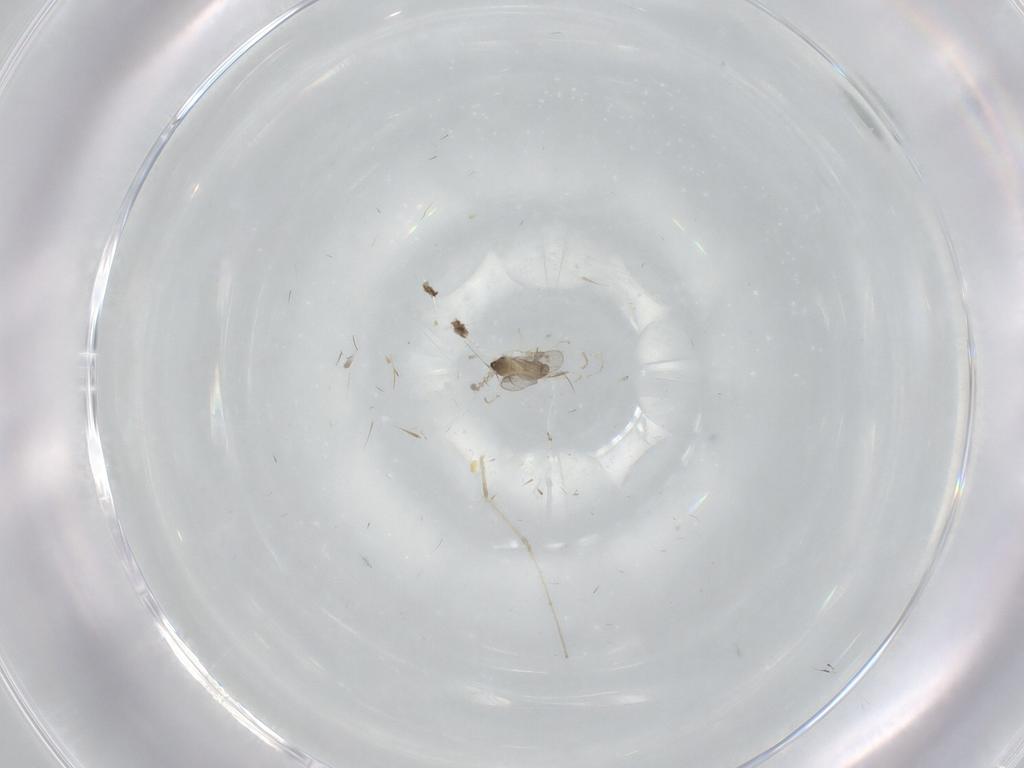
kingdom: Animalia
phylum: Arthropoda
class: Insecta
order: Diptera
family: Cecidomyiidae
